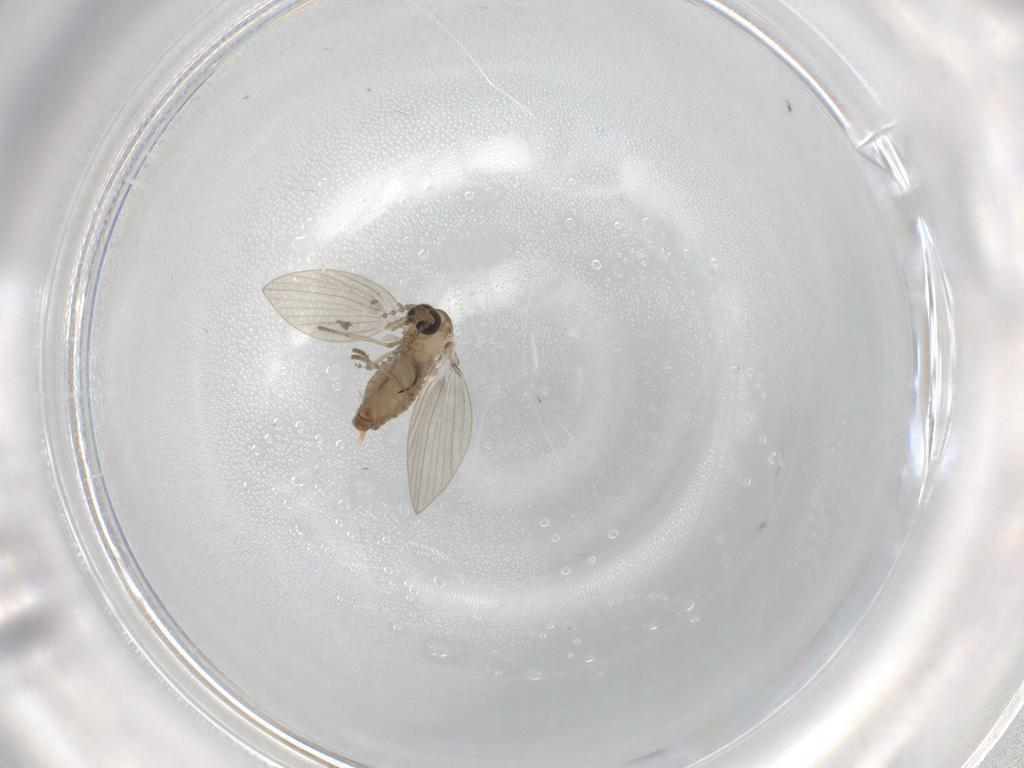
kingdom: Animalia
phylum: Arthropoda
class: Insecta
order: Diptera
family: Psychodidae
